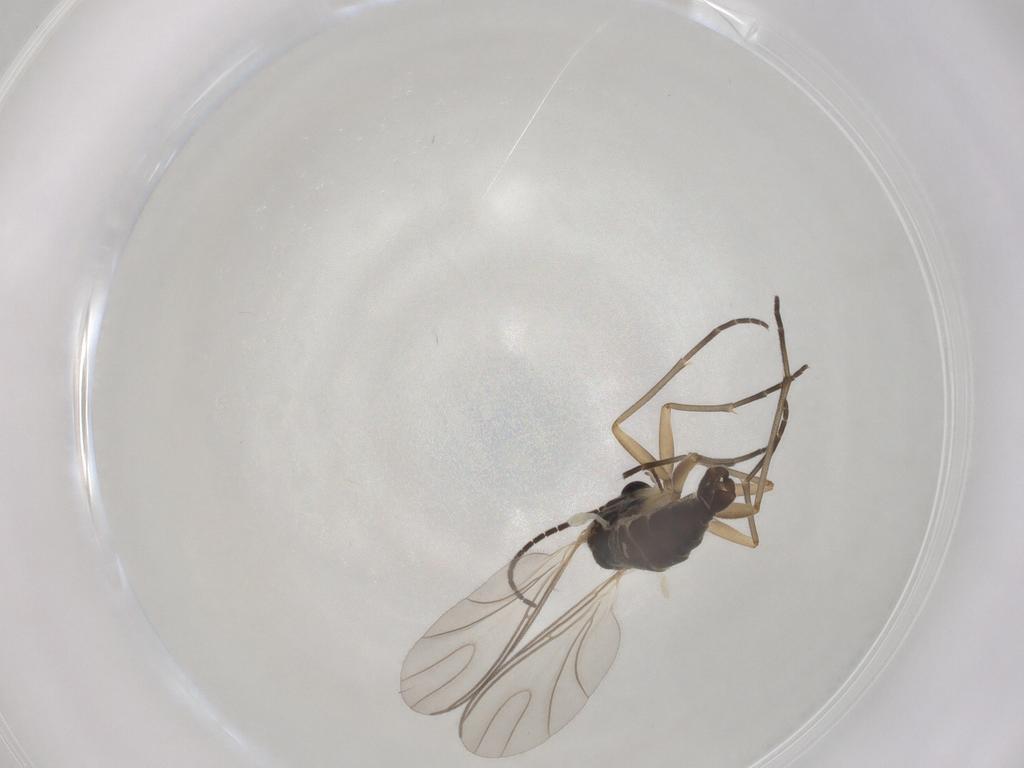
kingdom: Animalia
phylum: Arthropoda
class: Insecta
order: Diptera
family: Sciaridae
